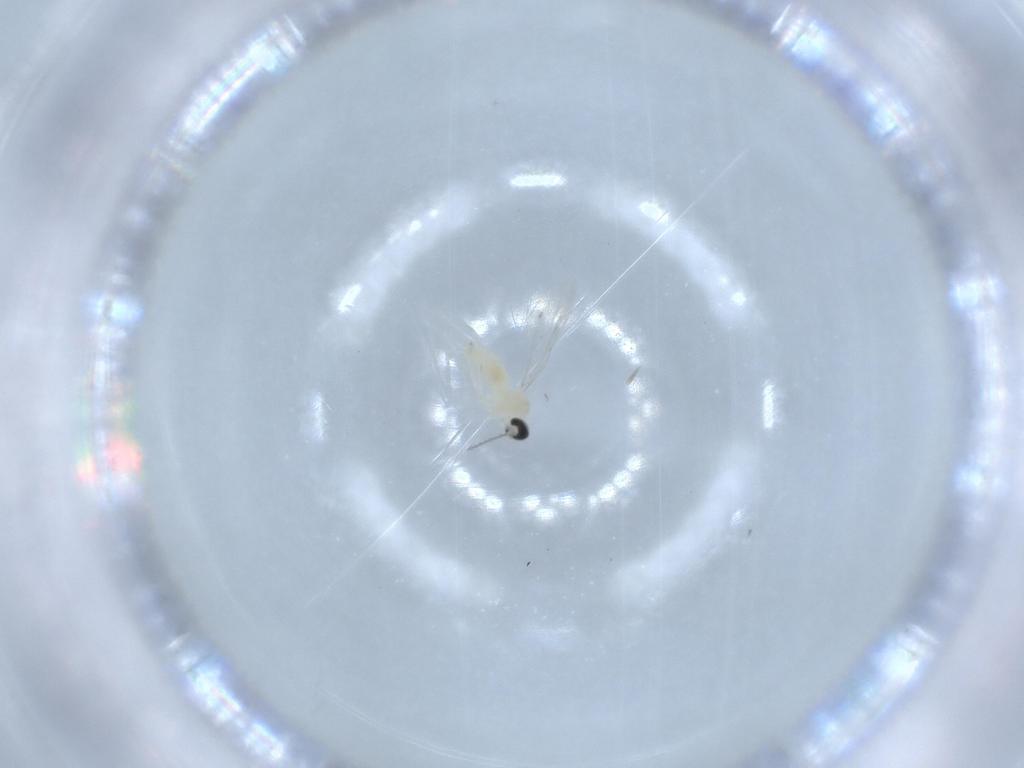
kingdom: Animalia
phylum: Arthropoda
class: Insecta
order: Diptera
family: Cecidomyiidae
